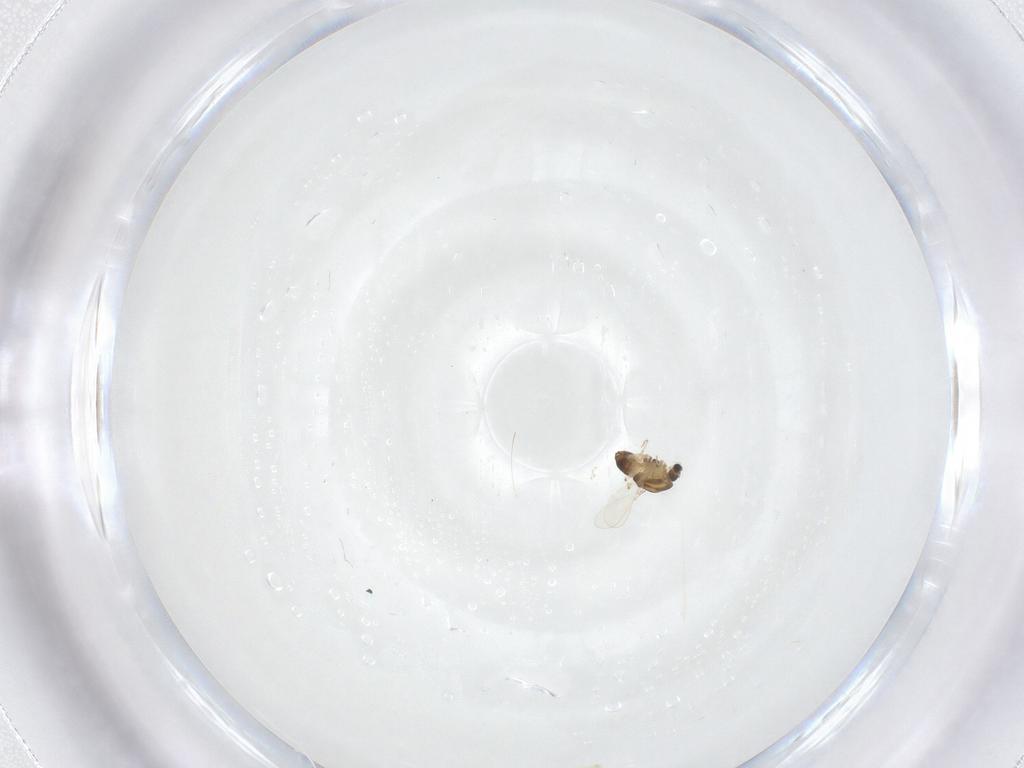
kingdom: Animalia
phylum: Arthropoda
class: Insecta
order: Diptera
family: Chironomidae
